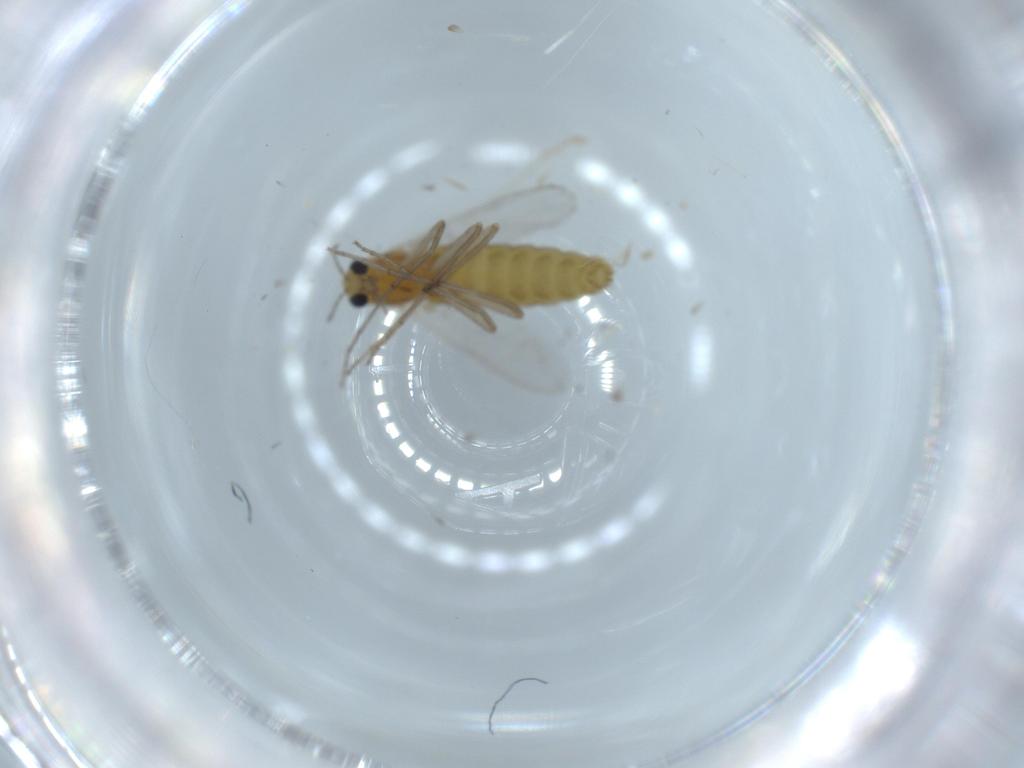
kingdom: Animalia
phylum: Arthropoda
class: Insecta
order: Diptera
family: Chironomidae
